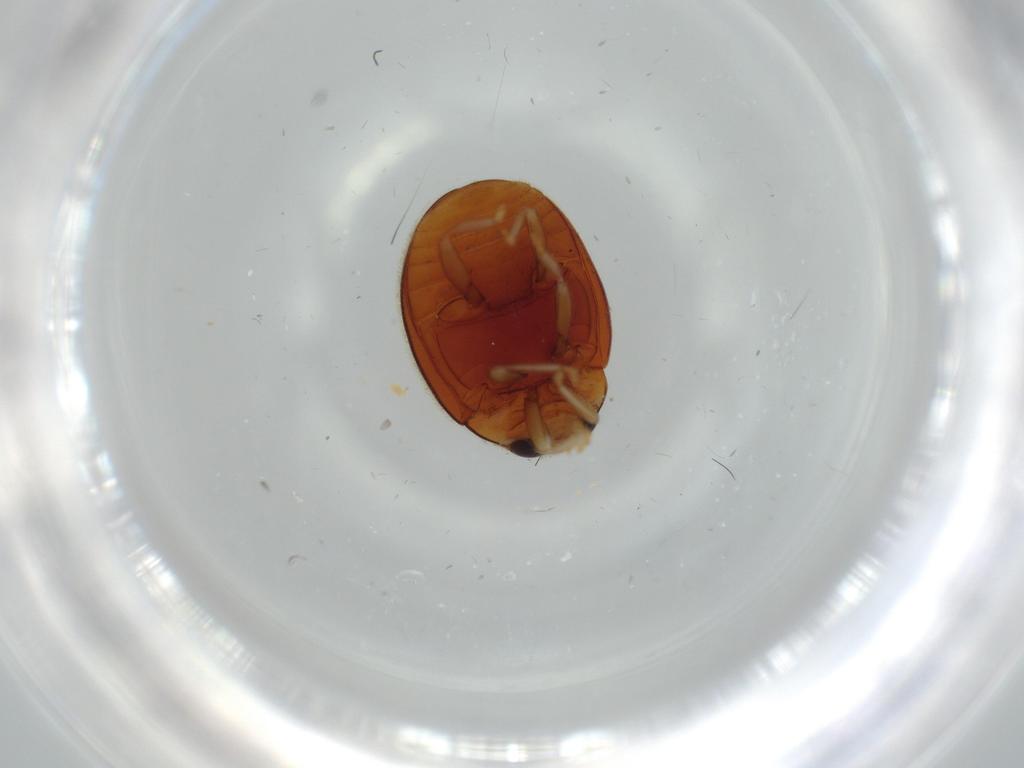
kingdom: Animalia
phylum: Arthropoda
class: Insecta
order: Coleoptera
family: Coccinellidae
